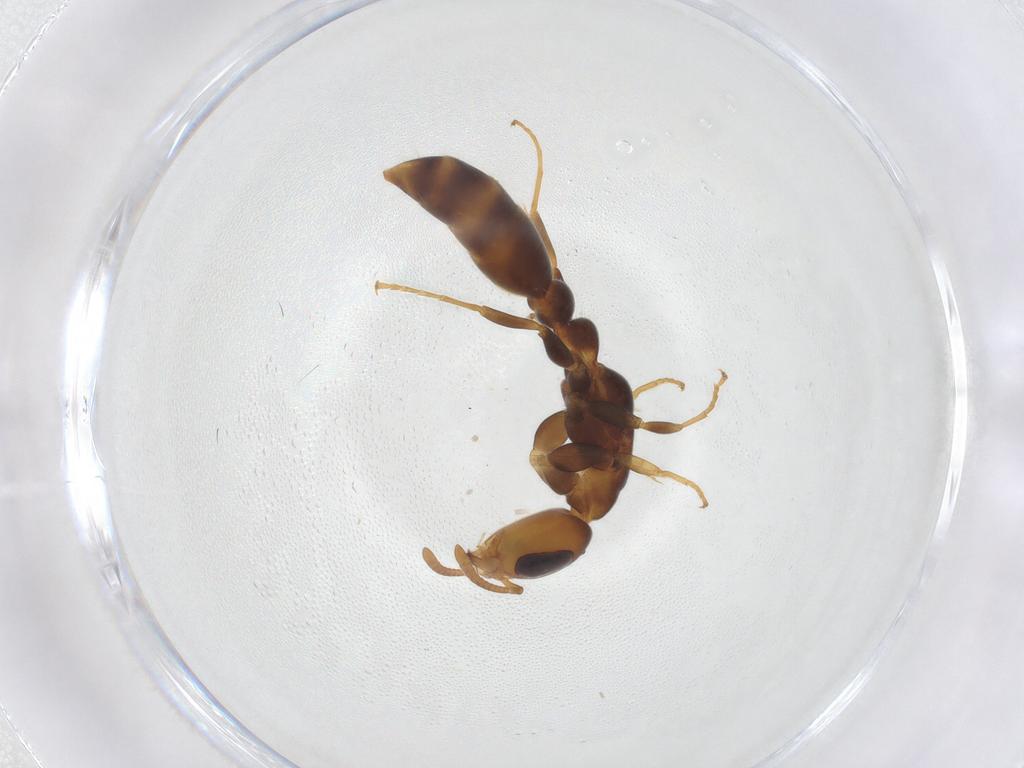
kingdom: Animalia
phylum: Arthropoda
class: Insecta
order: Hymenoptera
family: Formicidae
